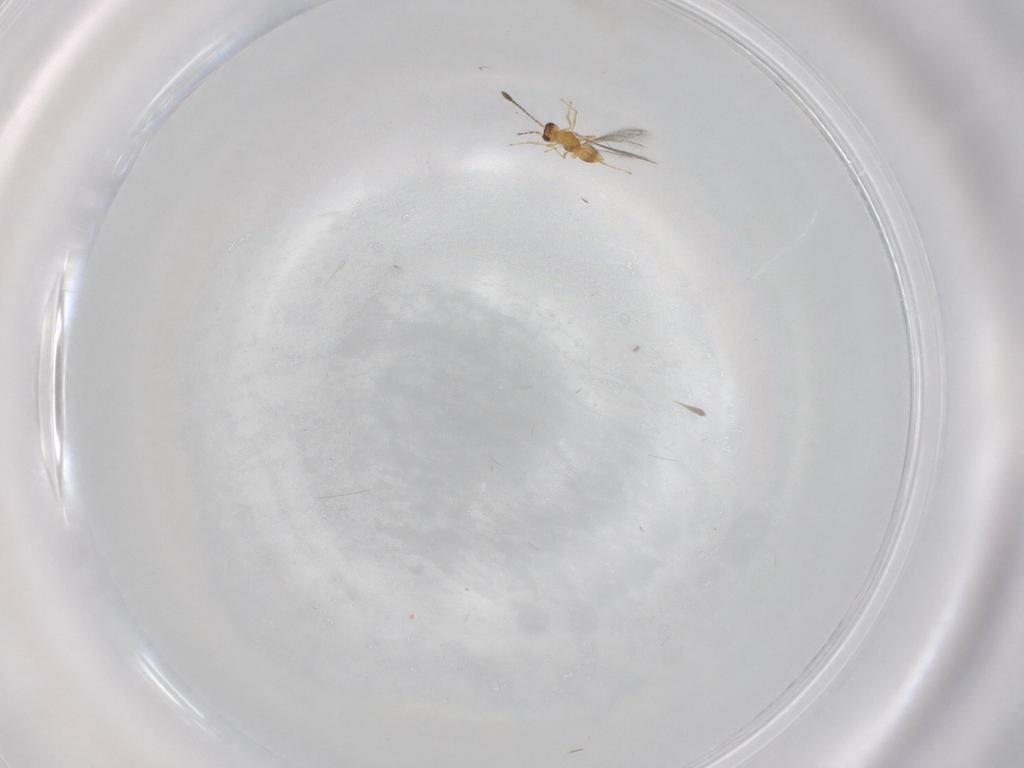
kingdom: Animalia
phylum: Arthropoda
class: Insecta
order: Hymenoptera
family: Mymaridae
